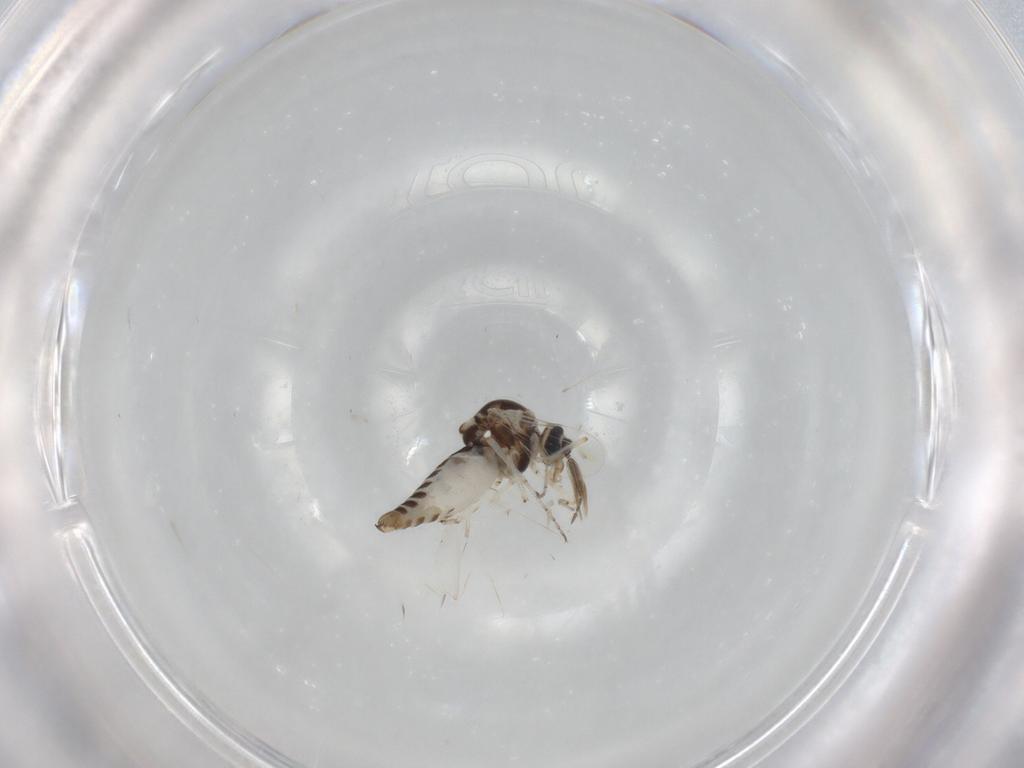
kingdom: Animalia
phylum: Arthropoda
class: Insecta
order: Diptera
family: Ceratopogonidae
